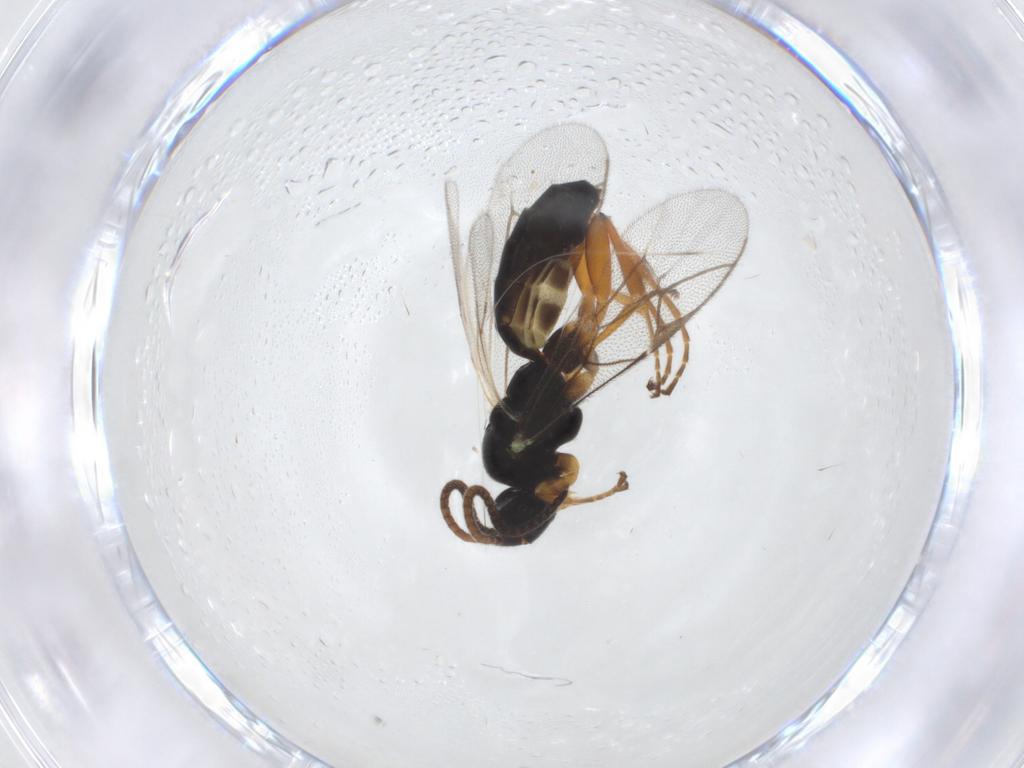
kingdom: Animalia
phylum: Arthropoda
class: Insecta
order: Hymenoptera
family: Ichneumonidae
